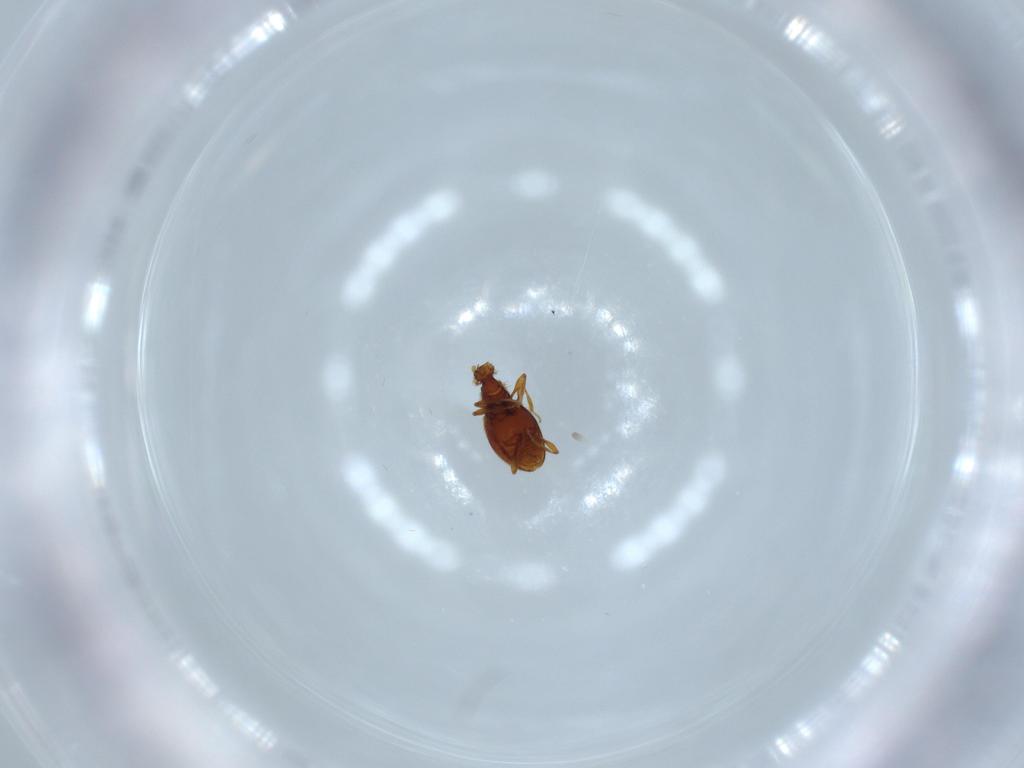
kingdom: Animalia
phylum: Arthropoda
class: Insecta
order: Coleoptera
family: Staphylinidae
